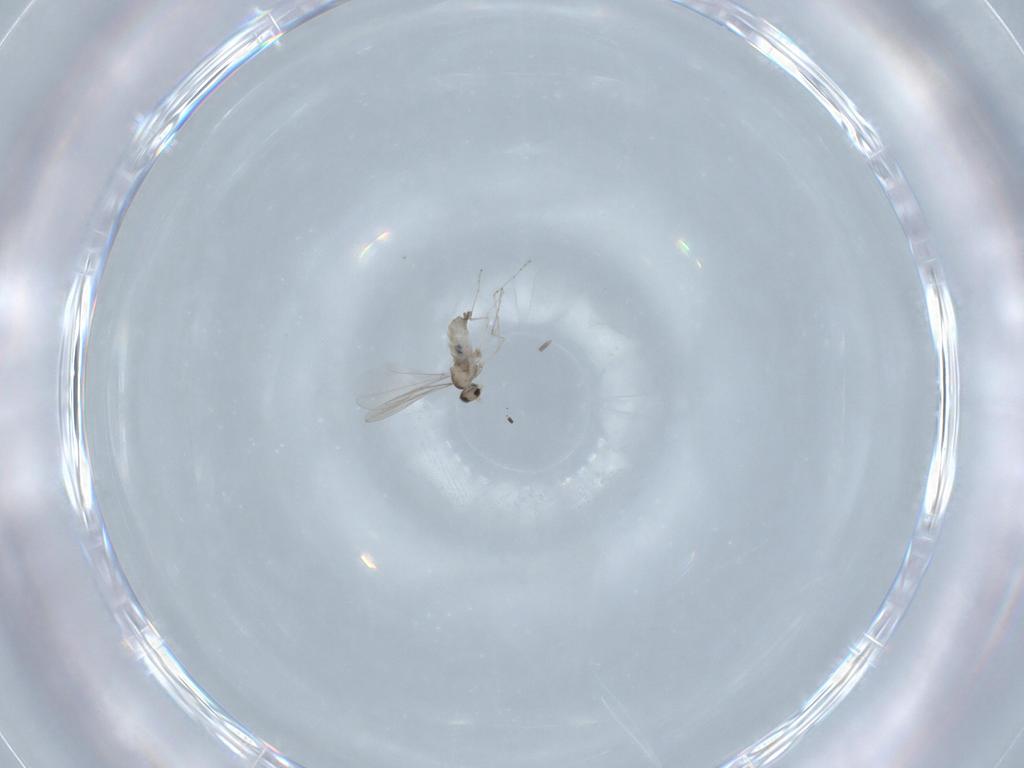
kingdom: Animalia
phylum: Arthropoda
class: Insecta
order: Diptera
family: Cecidomyiidae
